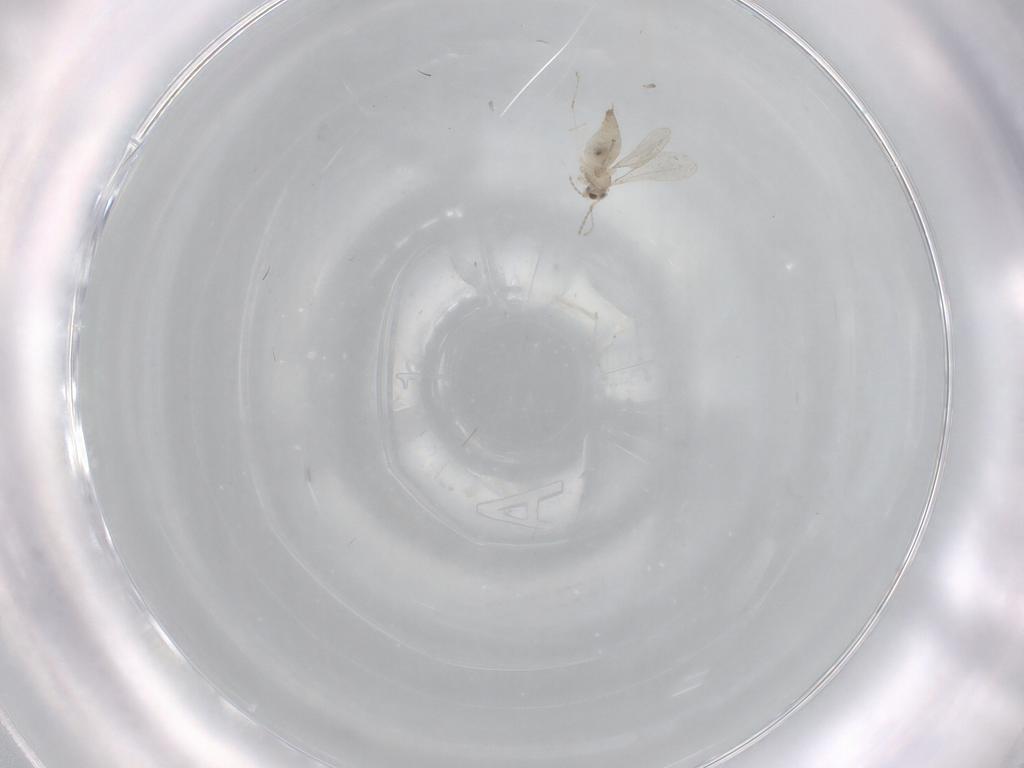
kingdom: Animalia
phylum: Arthropoda
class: Insecta
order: Diptera
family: Cecidomyiidae
